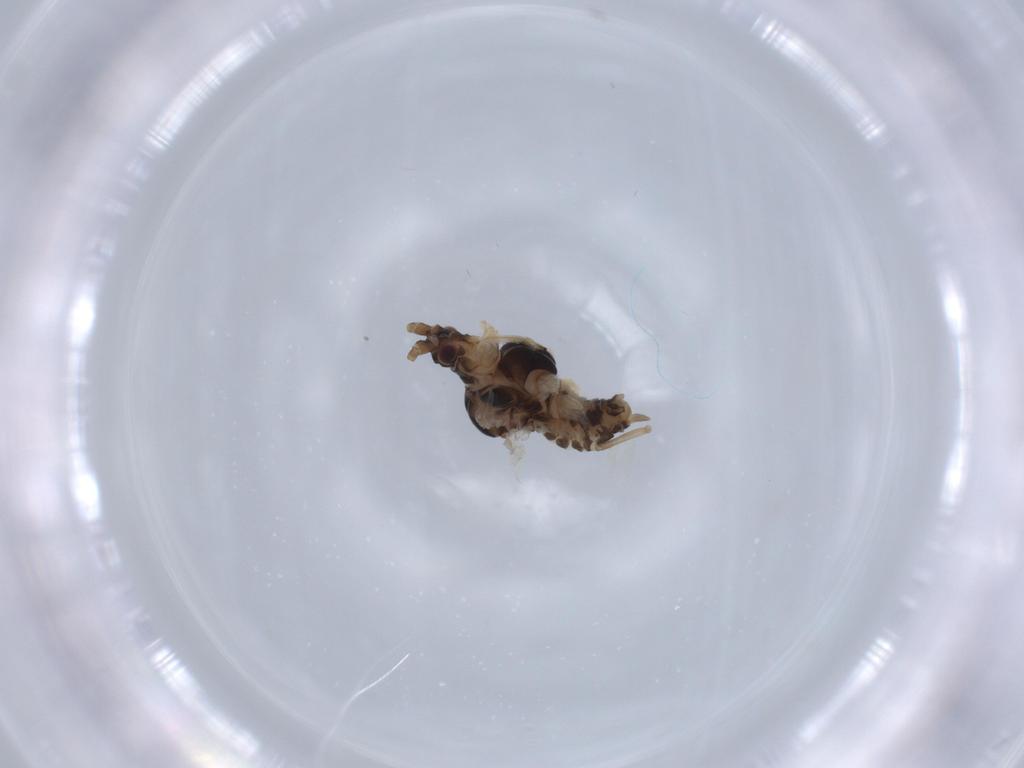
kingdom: Animalia
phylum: Arthropoda
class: Insecta
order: Hemiptera
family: Aphididae
